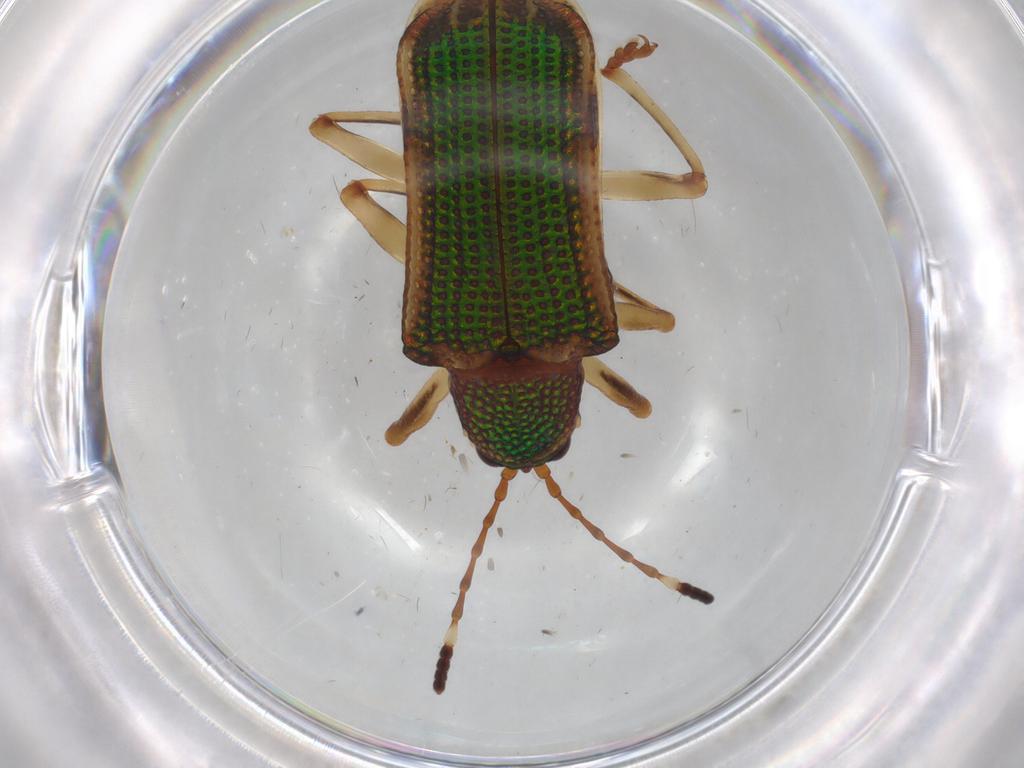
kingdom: Animalia
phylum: Arthropoda
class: Insecta
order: Coleoptera
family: Chrysomelidae
